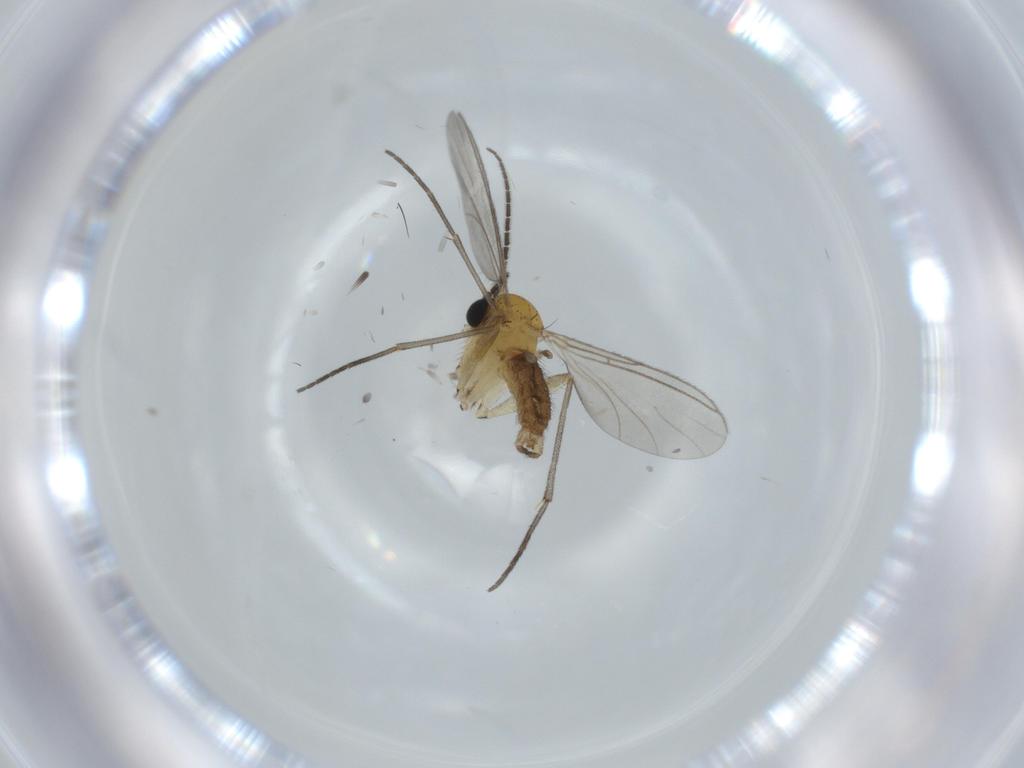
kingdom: Animalia
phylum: Arthropoda
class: Insecta
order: Diptera
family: Sciaridae
